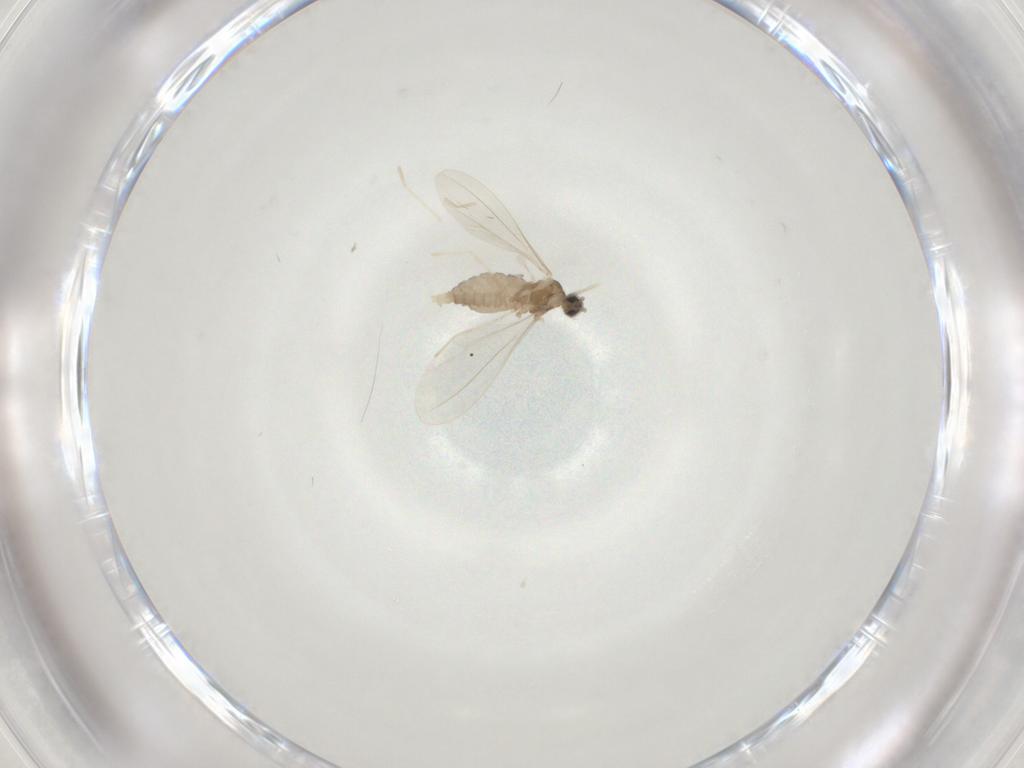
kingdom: Animalia
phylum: Arthropoda
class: Insecta
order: Diptera
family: Cecidomyiidae
